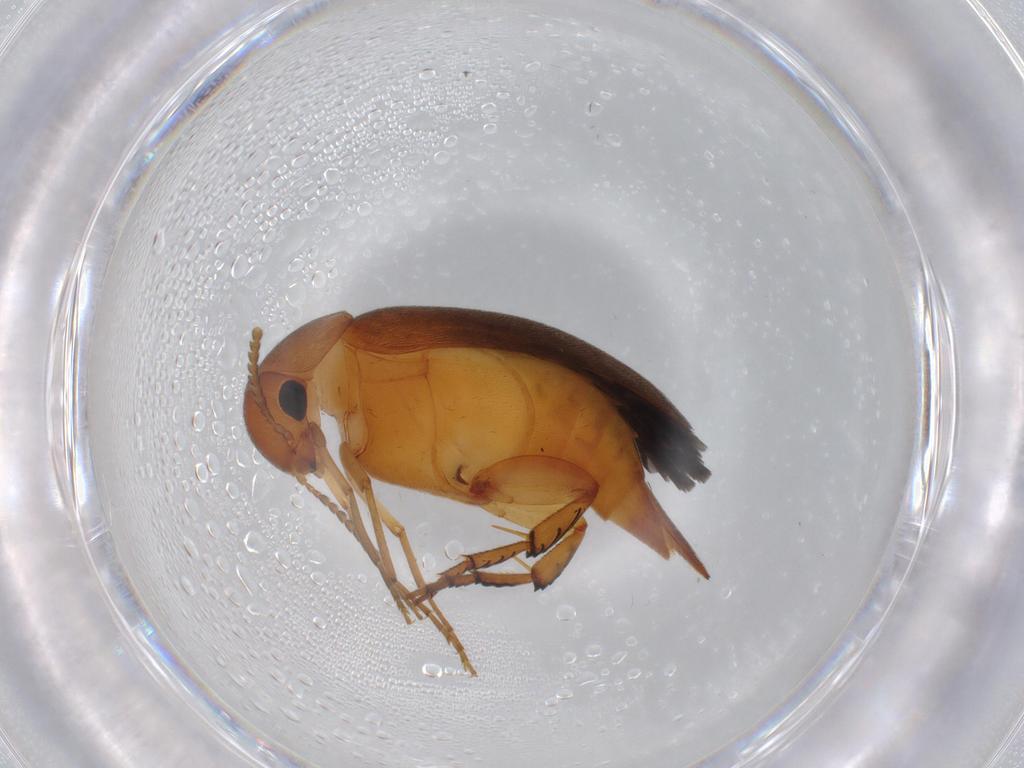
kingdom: Animalia
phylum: Arthropoda
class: Insecta
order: Coleoptera
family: Mordellidae
